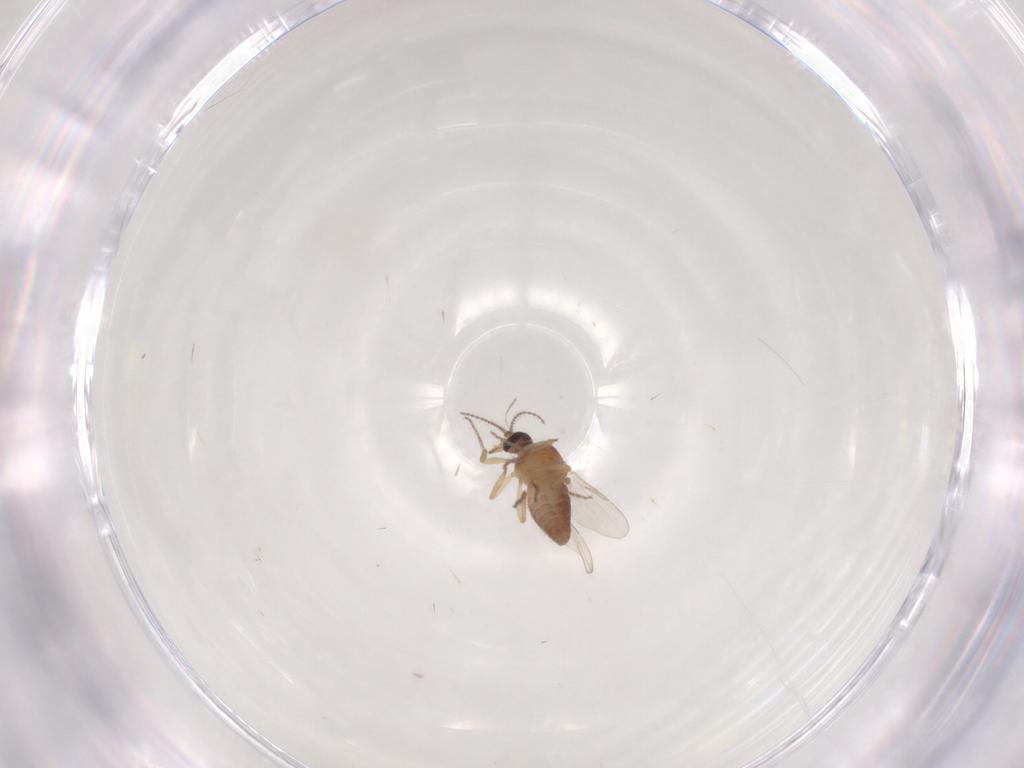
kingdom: Animalia
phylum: Arthropoda
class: Insecta
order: Diptera
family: Ceratopogonidae
